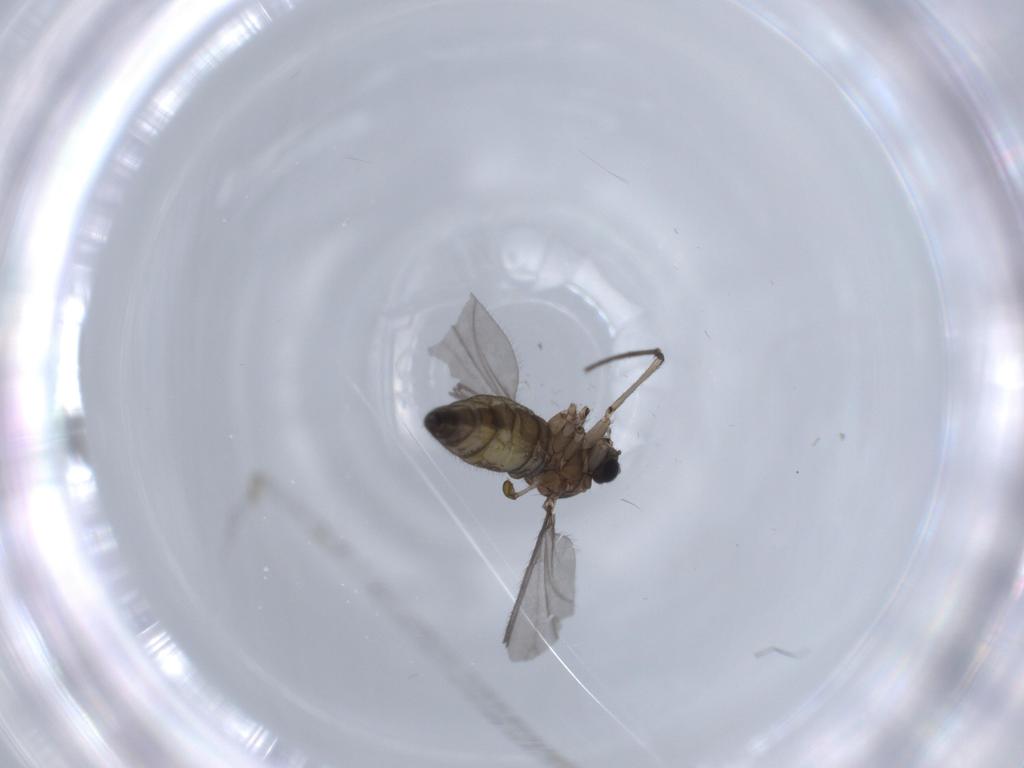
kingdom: Animalia
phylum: Arthropoda
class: Insecta
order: Diptera
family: Sciaridae
